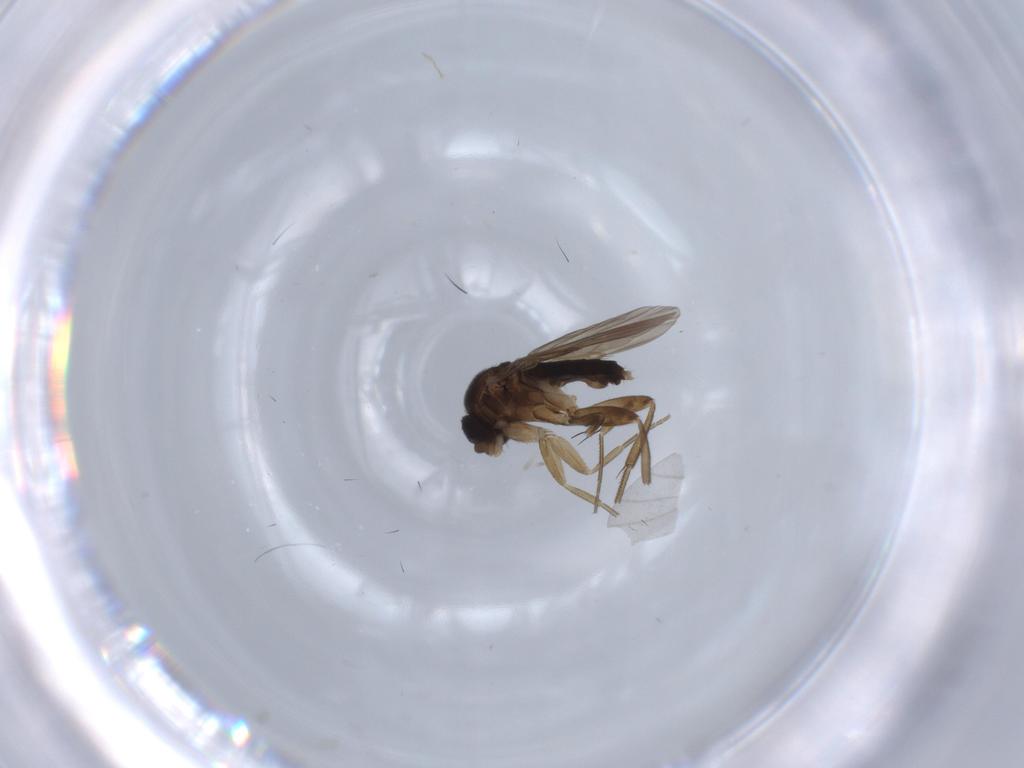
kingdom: Animalia
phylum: Arthropoda
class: Insecta
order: Diptera
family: Phoridae
